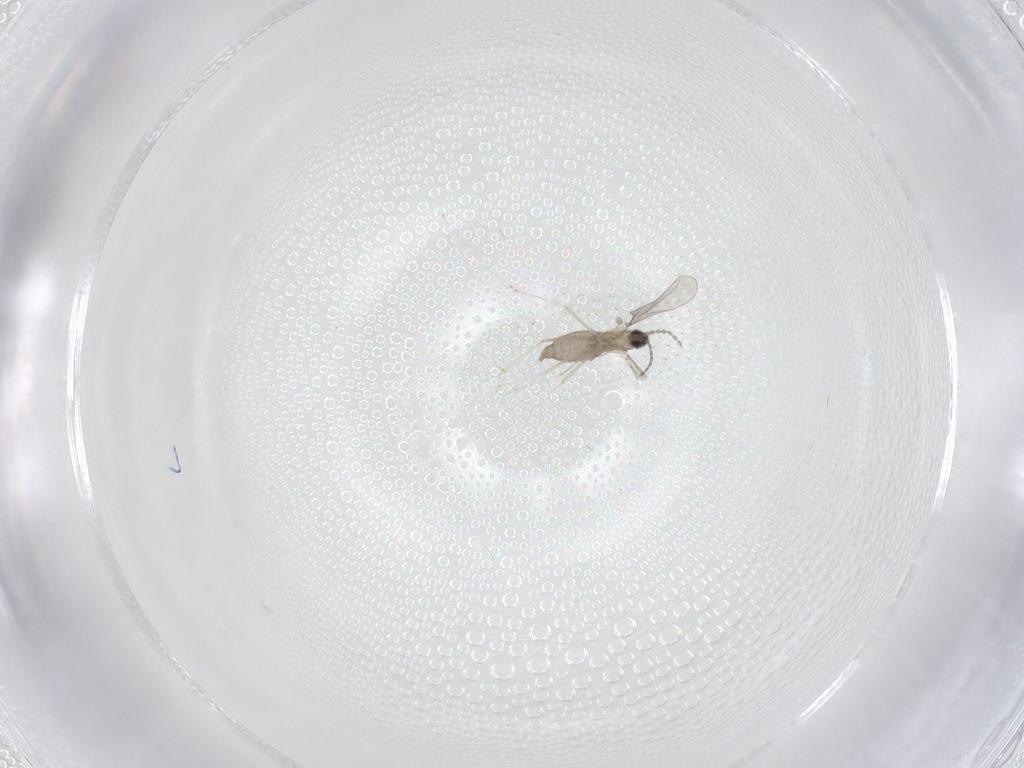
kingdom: Animalia
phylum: Arthropoda
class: Insecta
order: Diptera
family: Cecidomyiidae
